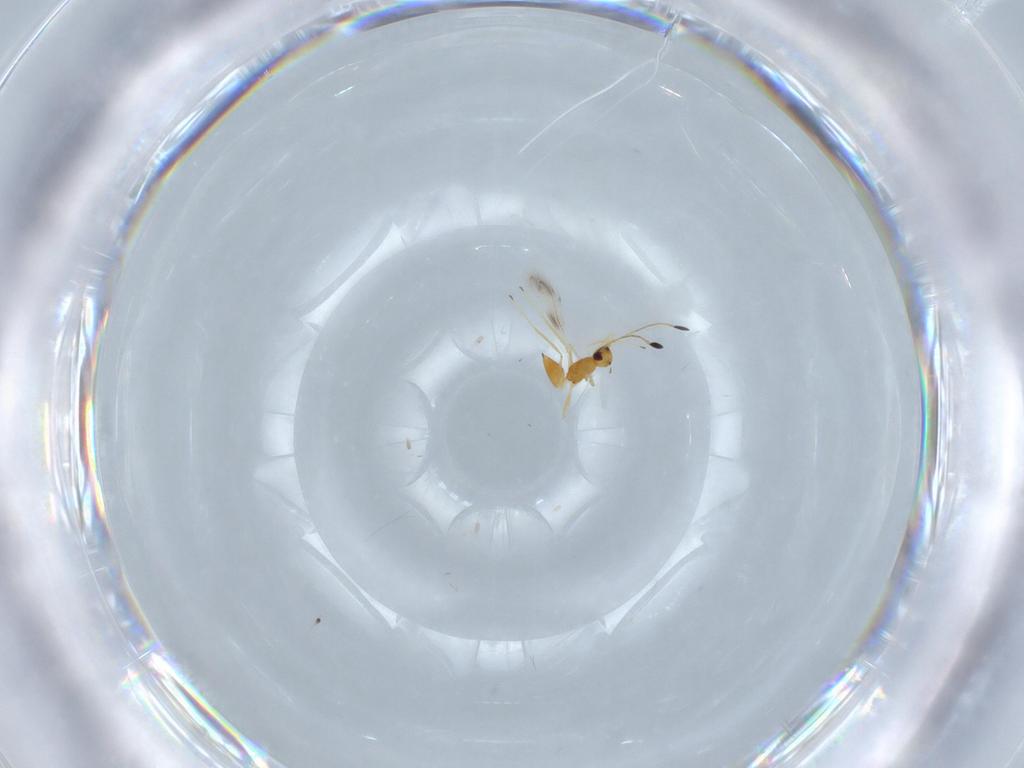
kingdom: Animalia
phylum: Arthropoda
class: Insecta
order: Hymenoptera
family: Mymaridae
